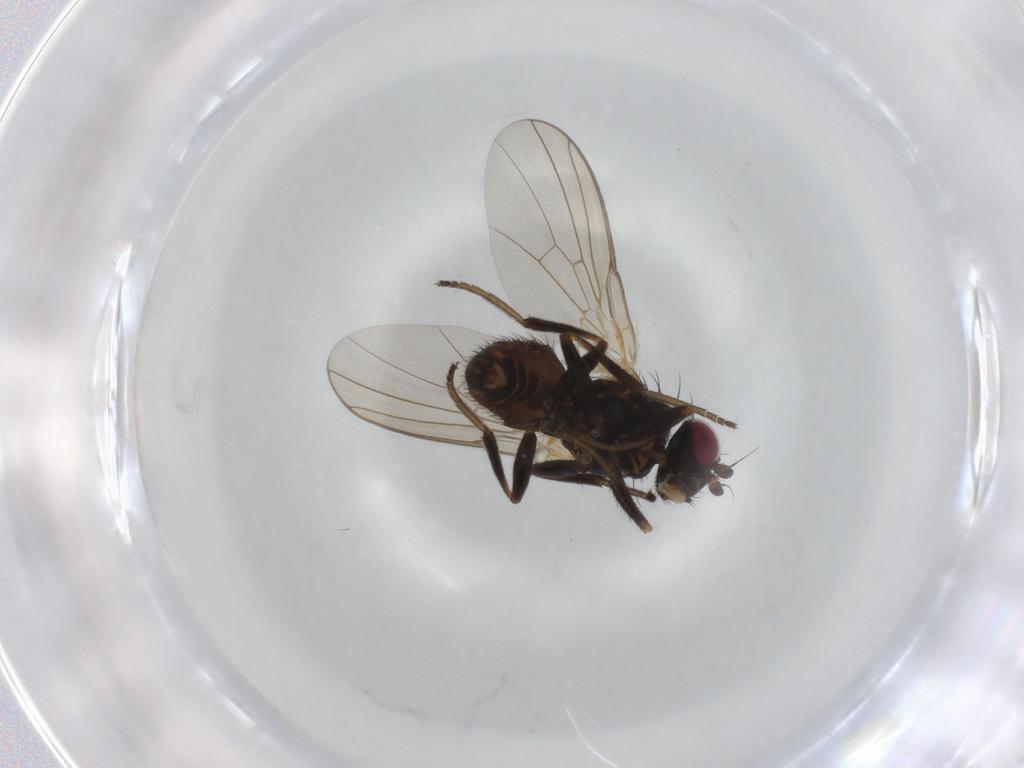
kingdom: Animalia
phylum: Arthropoda
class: Insecta
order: Diptera
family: Agromyzidae
